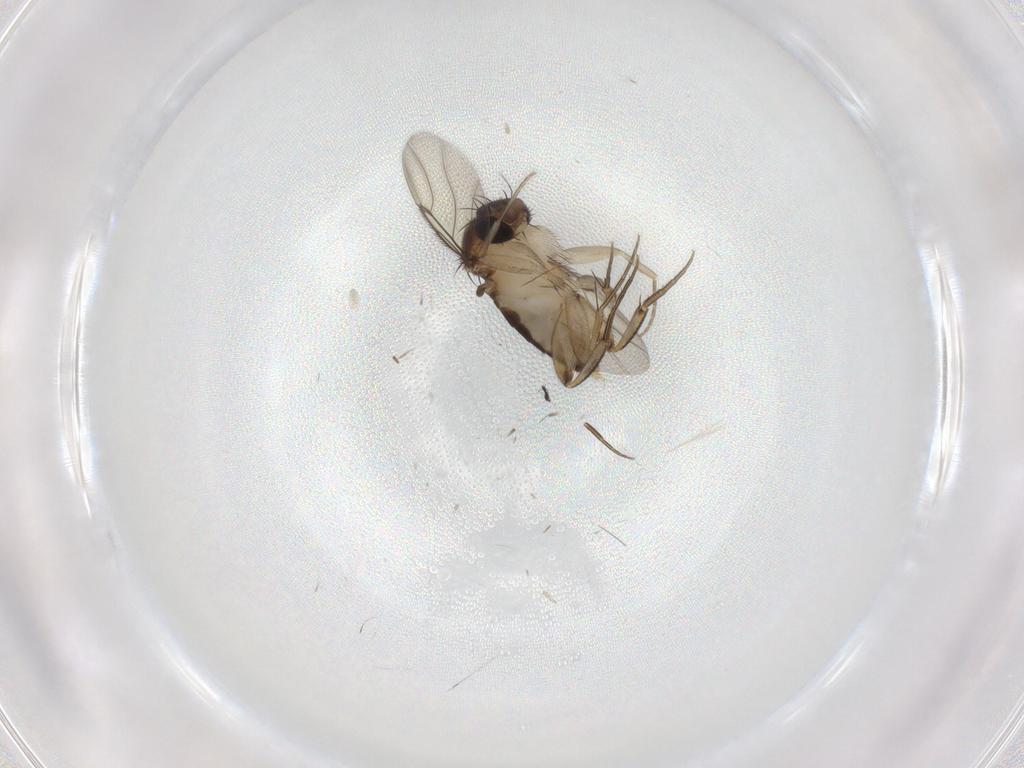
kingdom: Animalia
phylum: Arthropoda
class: Insecta
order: Diptera
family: Phoridae
